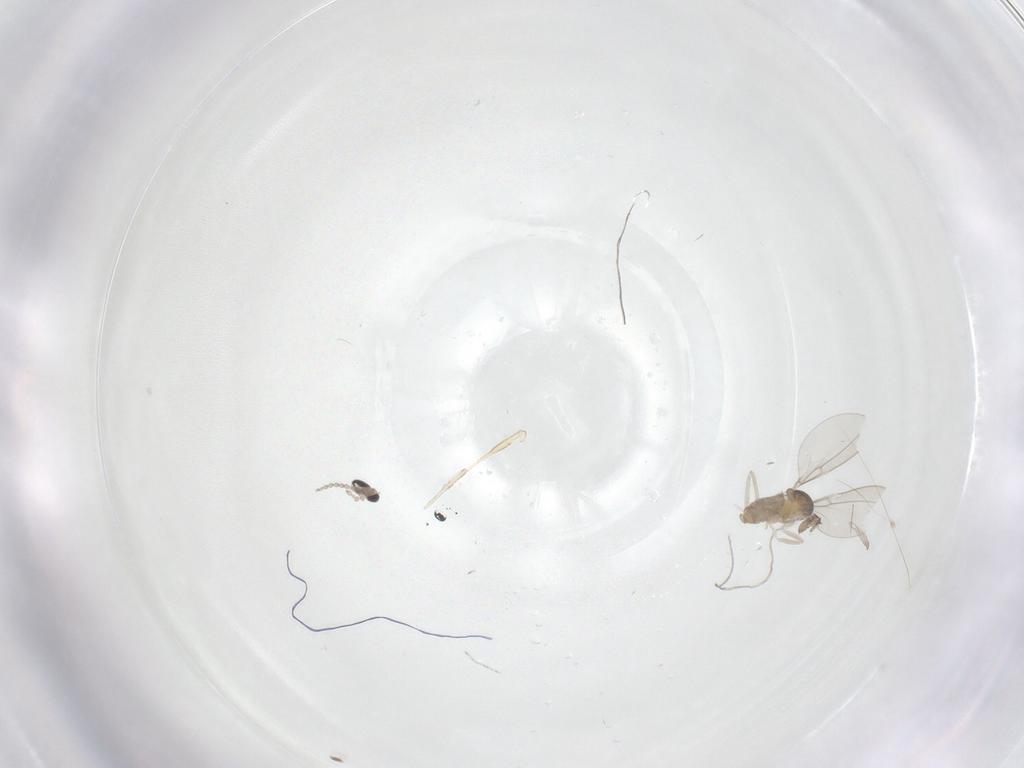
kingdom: Animalia
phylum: Arthropoda
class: Insecta
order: Diptera
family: Cecidomyiidae
